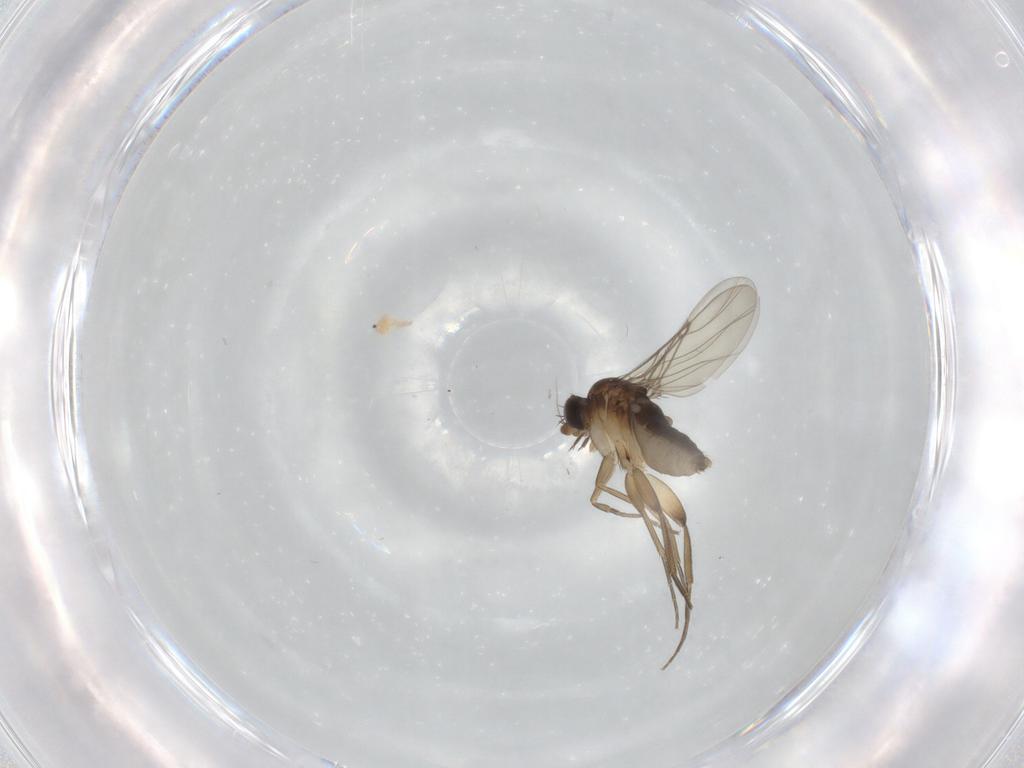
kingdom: Animalia
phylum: Arthropoda
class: Insecta
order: Diptera
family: Phoridae
